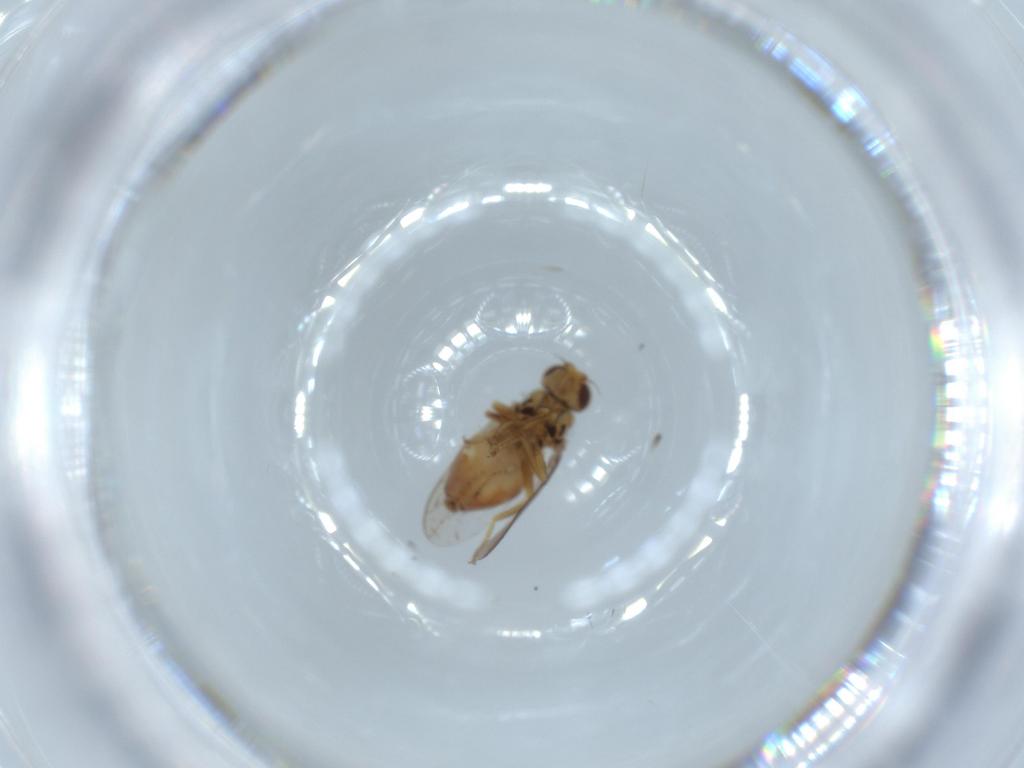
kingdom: Animalia
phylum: Arthropoda
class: Insecta
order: Diptera
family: Chloropidae
